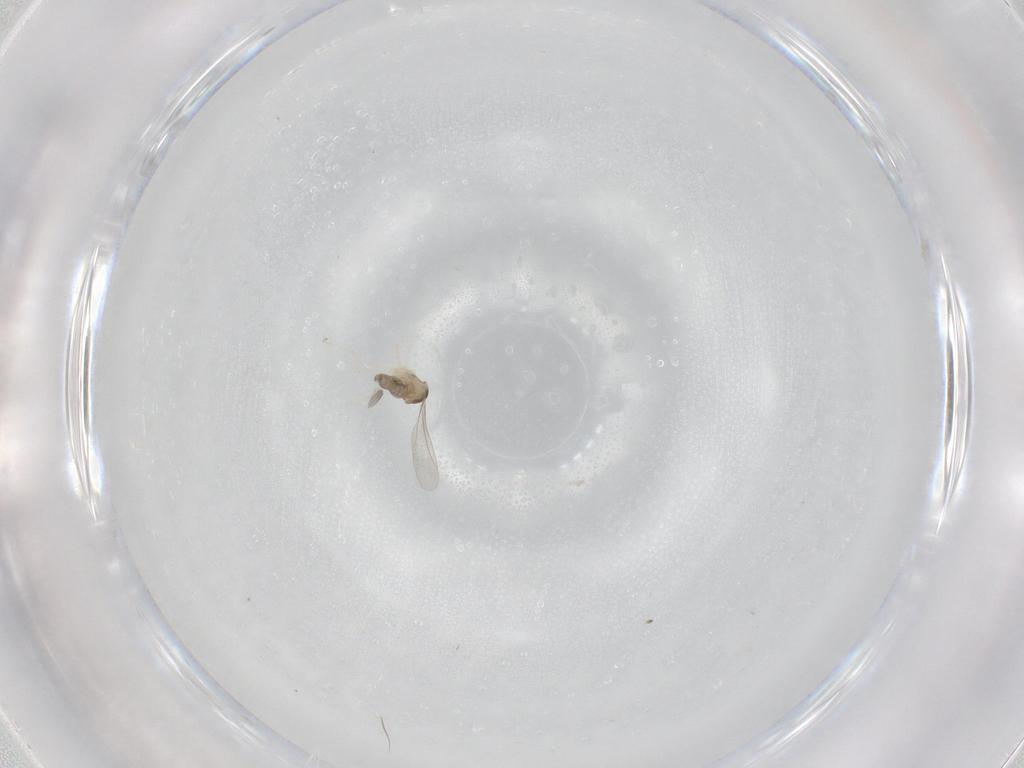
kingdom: Animalia
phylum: Arthropoda
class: Insecta
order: Diptera
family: Cecidomyiidae
